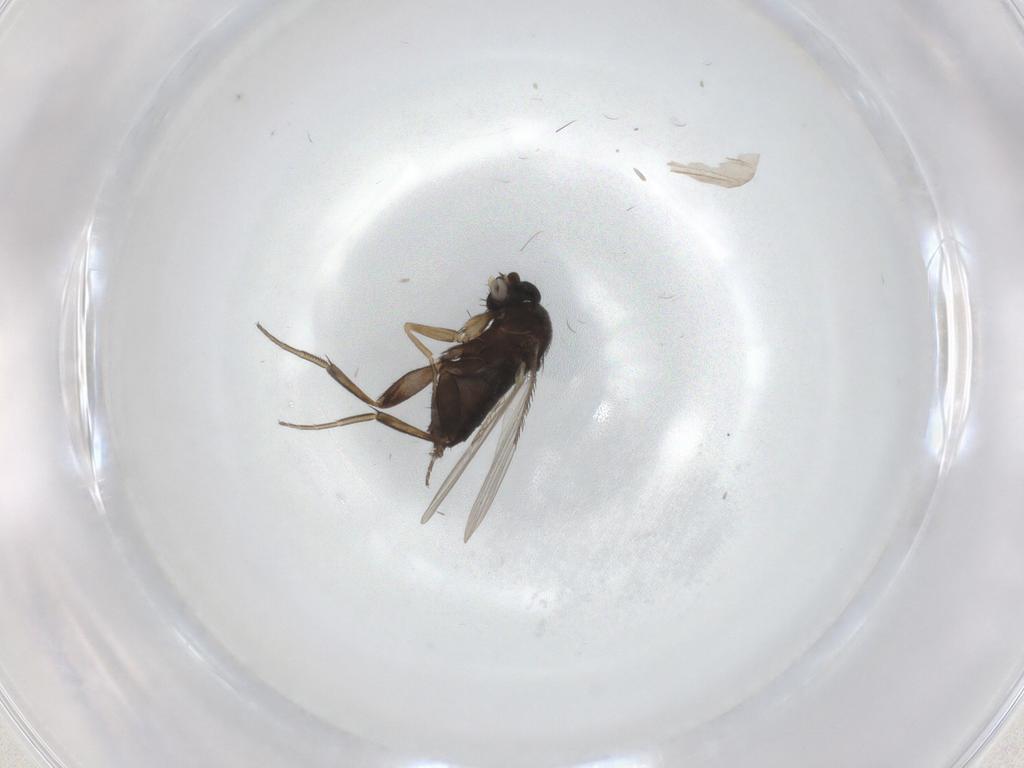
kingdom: Animalia
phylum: Arthropoda
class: Insecta
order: Diptera
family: Phoridae
